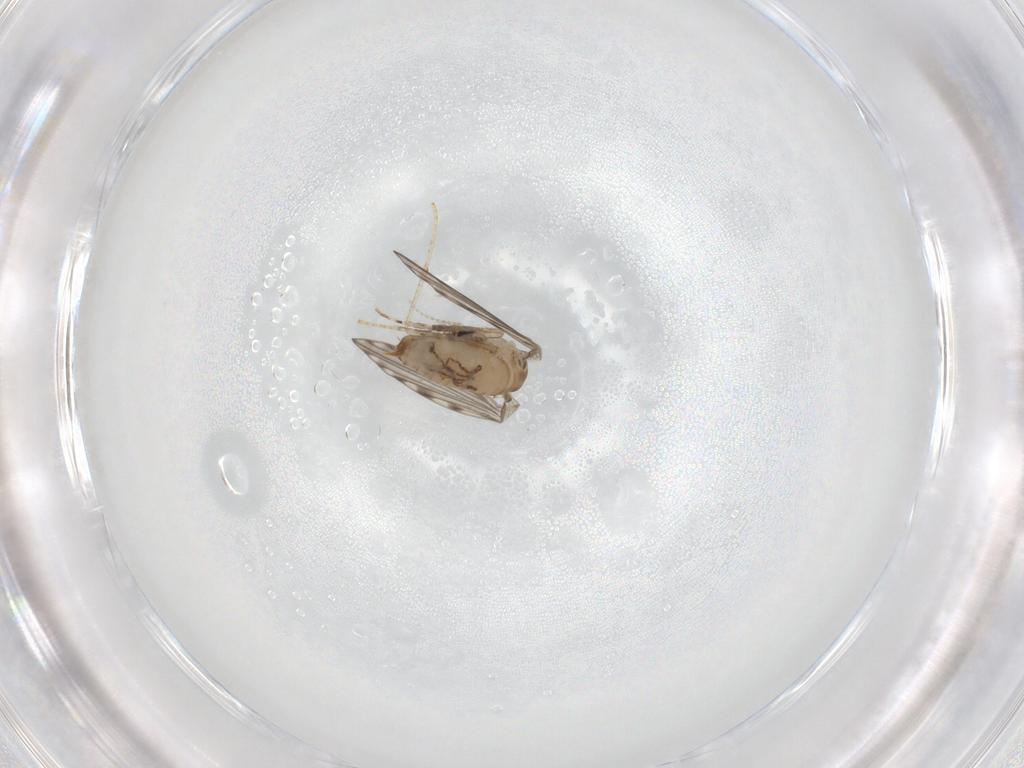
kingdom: Animalia
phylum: Arthropoda
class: Insecta
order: Diptera
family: Psychodidae
